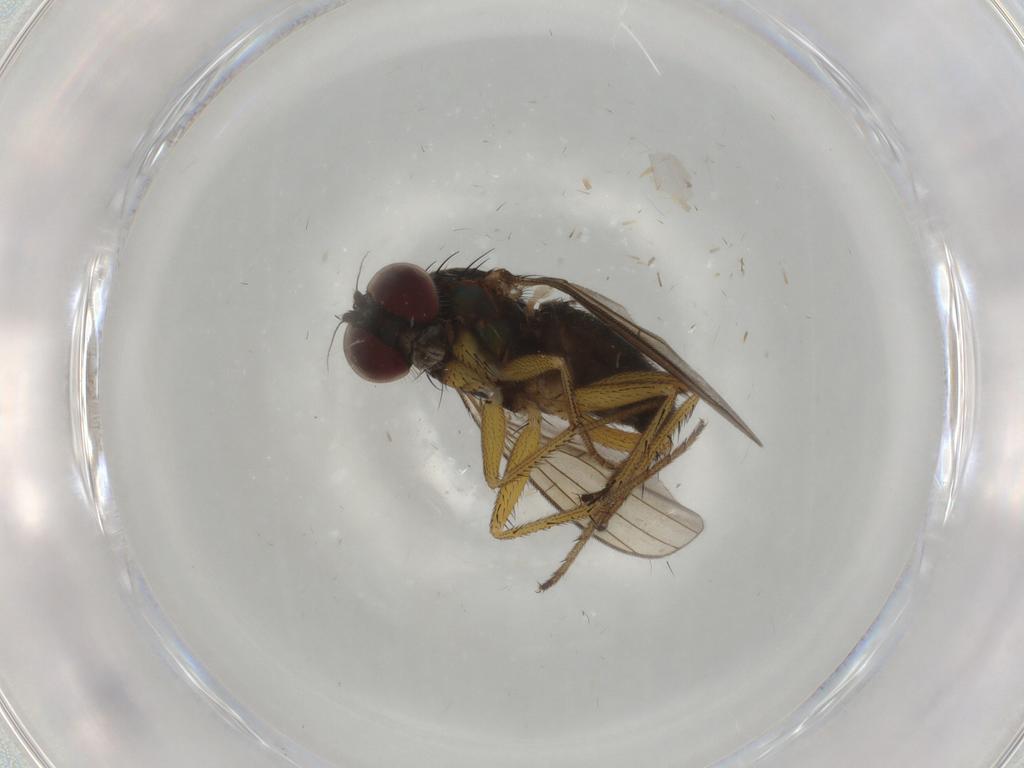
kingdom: Animalia
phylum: Arthropoda
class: Insecta
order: Diptera
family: Dolichopodidae
